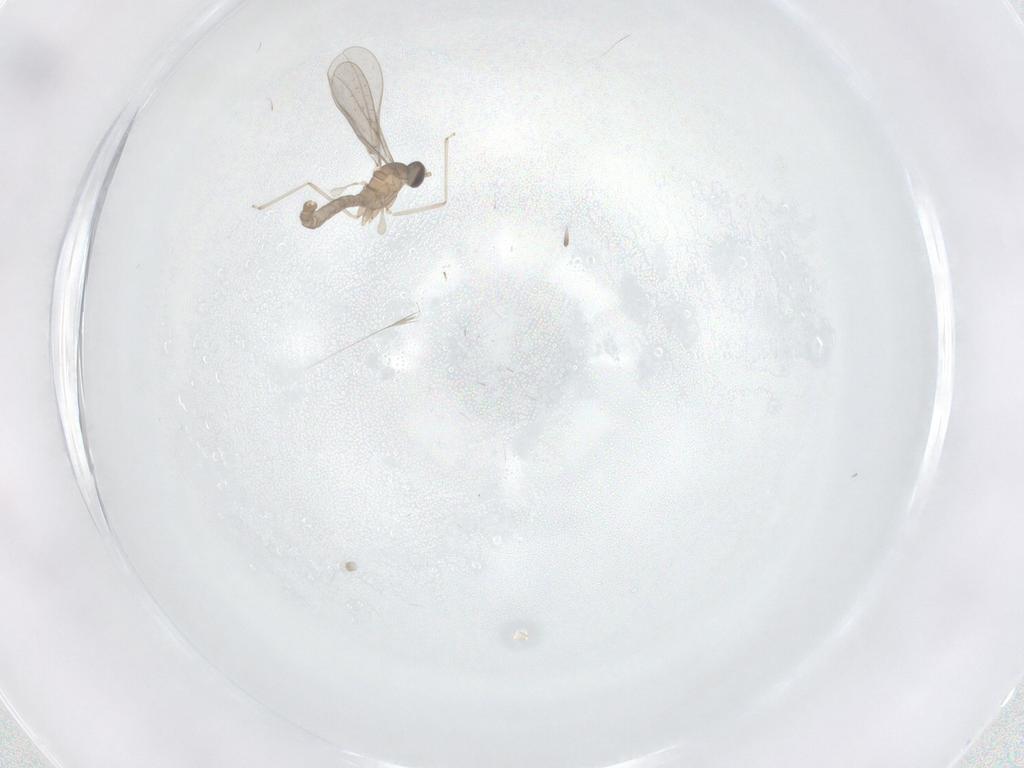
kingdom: Animalia
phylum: Arthropoda
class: Insecta
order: Diptera
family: Cecidomyiidae
